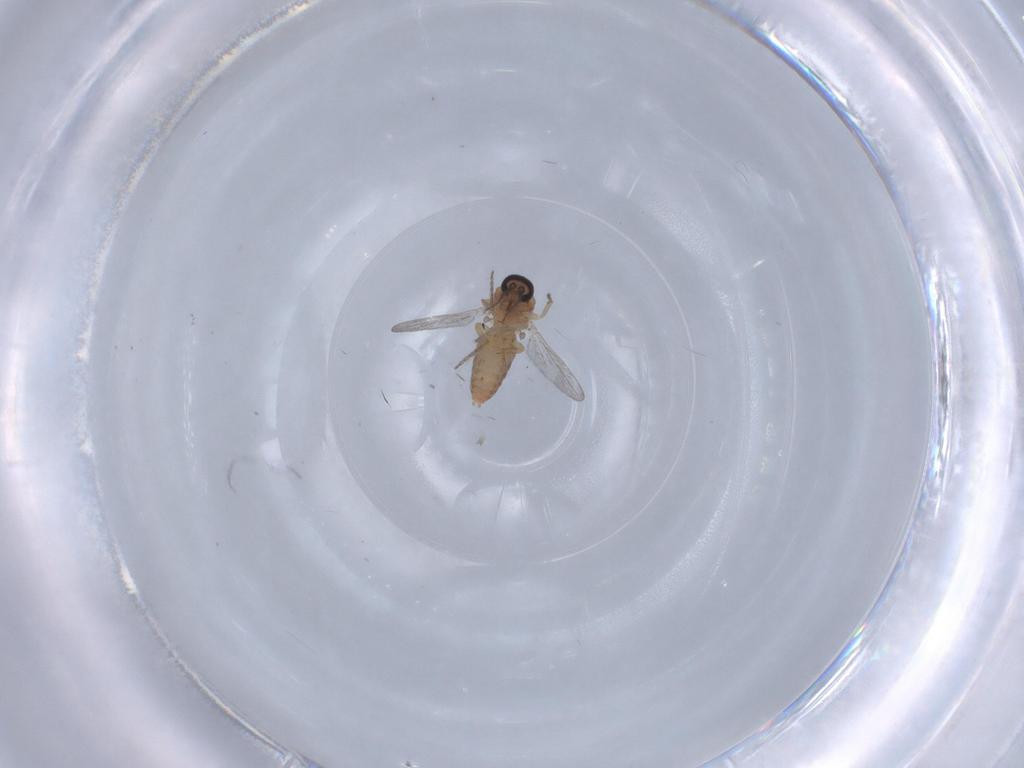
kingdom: Animalia
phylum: Arthropoda
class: Insecta
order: Diptera
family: Ceratopogonidae
